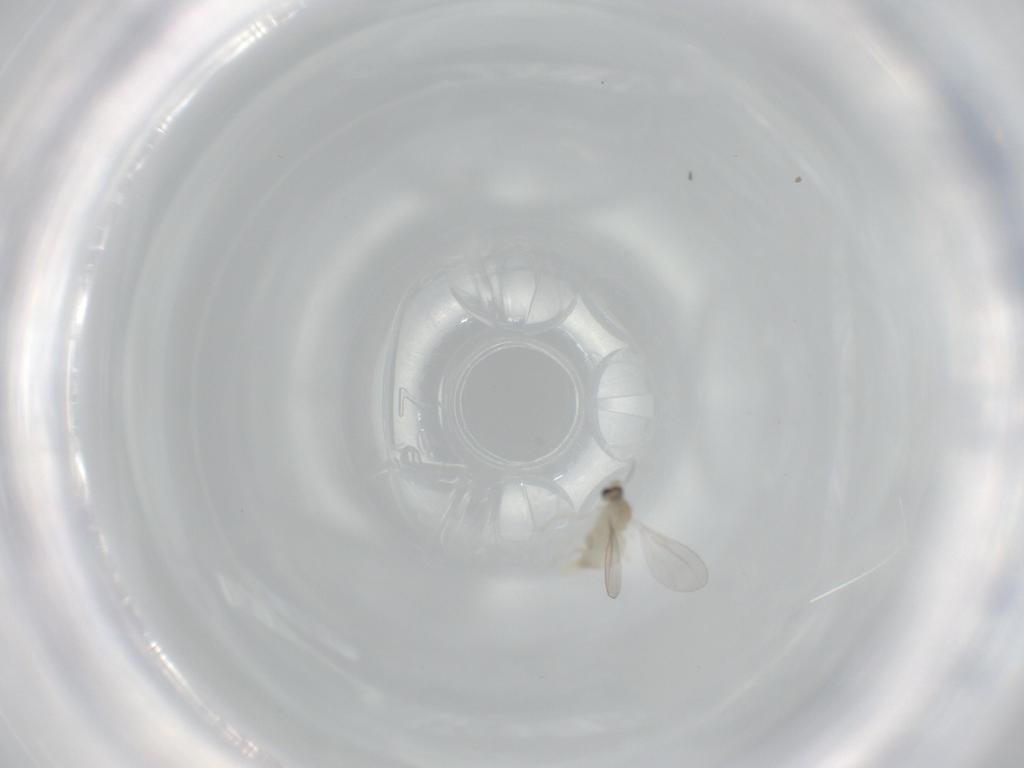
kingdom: Animalia
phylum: Arthropoda
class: Insecta
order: Diptera
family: Cecidomyiidae
